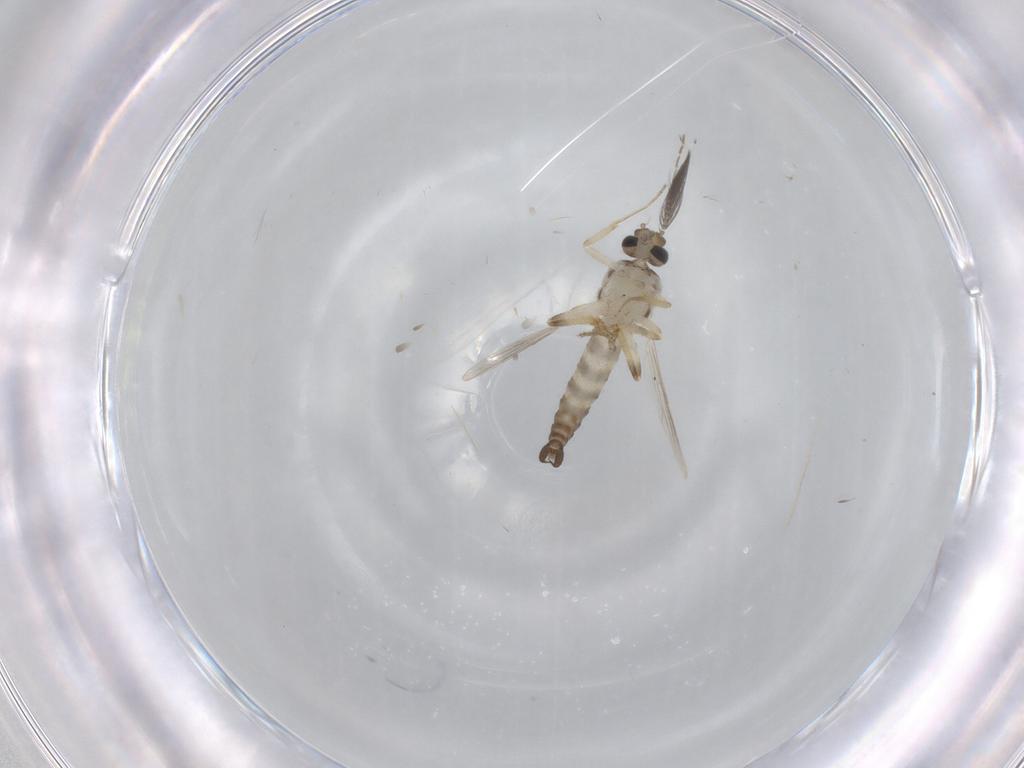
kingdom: Animalia
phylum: Arthropoda
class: Insecta
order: Diptera
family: Ceratopogonidae
